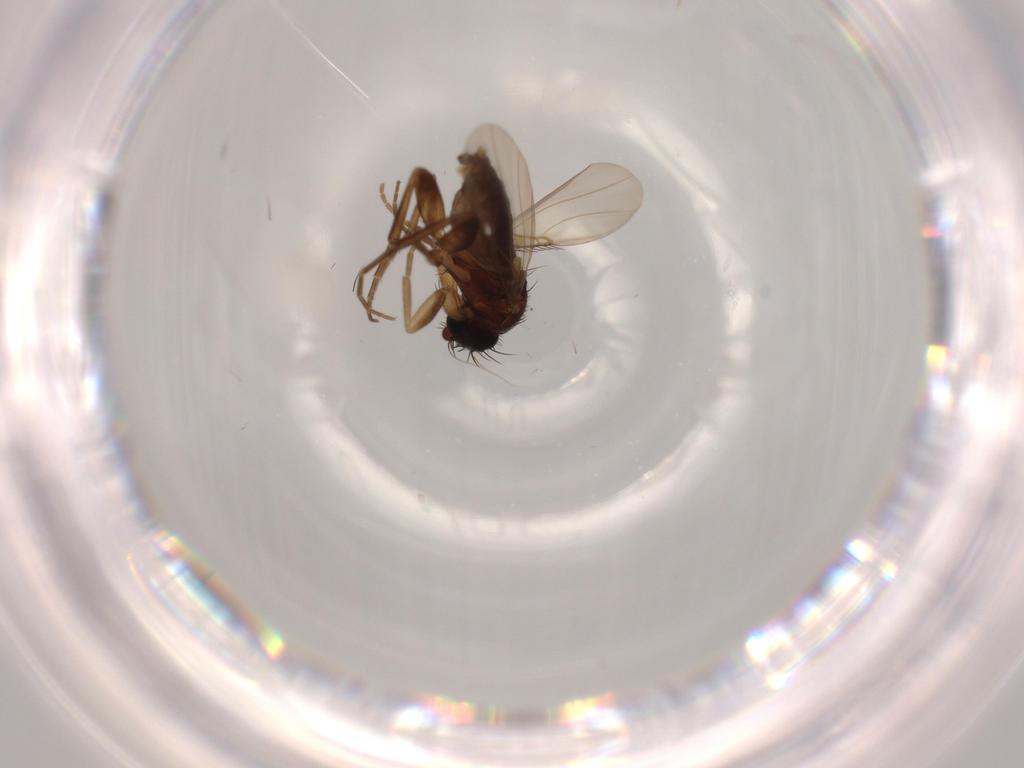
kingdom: Animalia
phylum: Arthropoda
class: Insecta
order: Diptera
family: Phoridae
